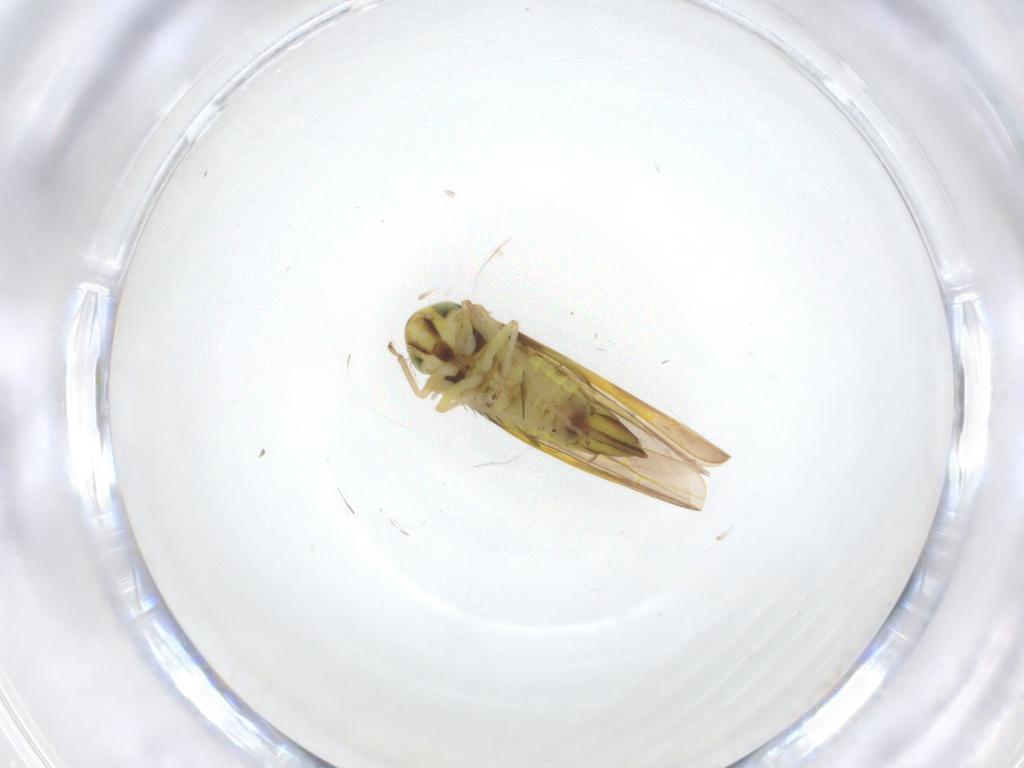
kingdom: Animalia
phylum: Arthropoda
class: Insecta
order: Hemiptera
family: Cicadellidae
